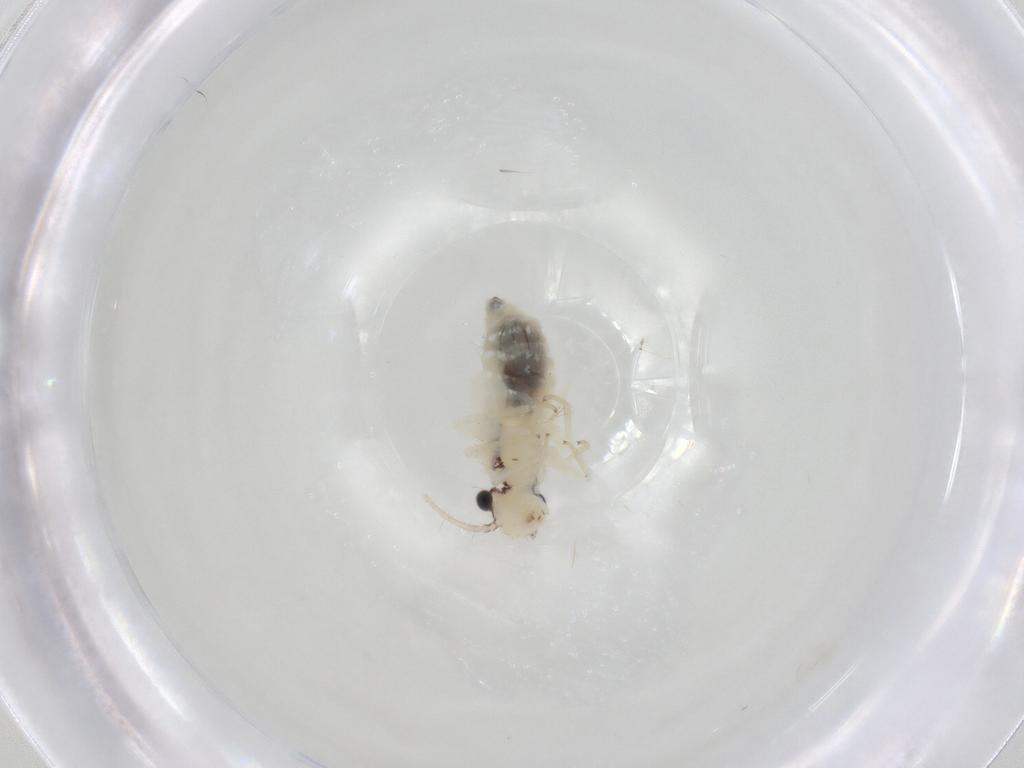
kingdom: Animalia
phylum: Arthropoda
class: Insecta
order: Psocodea
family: Philotarsidae
